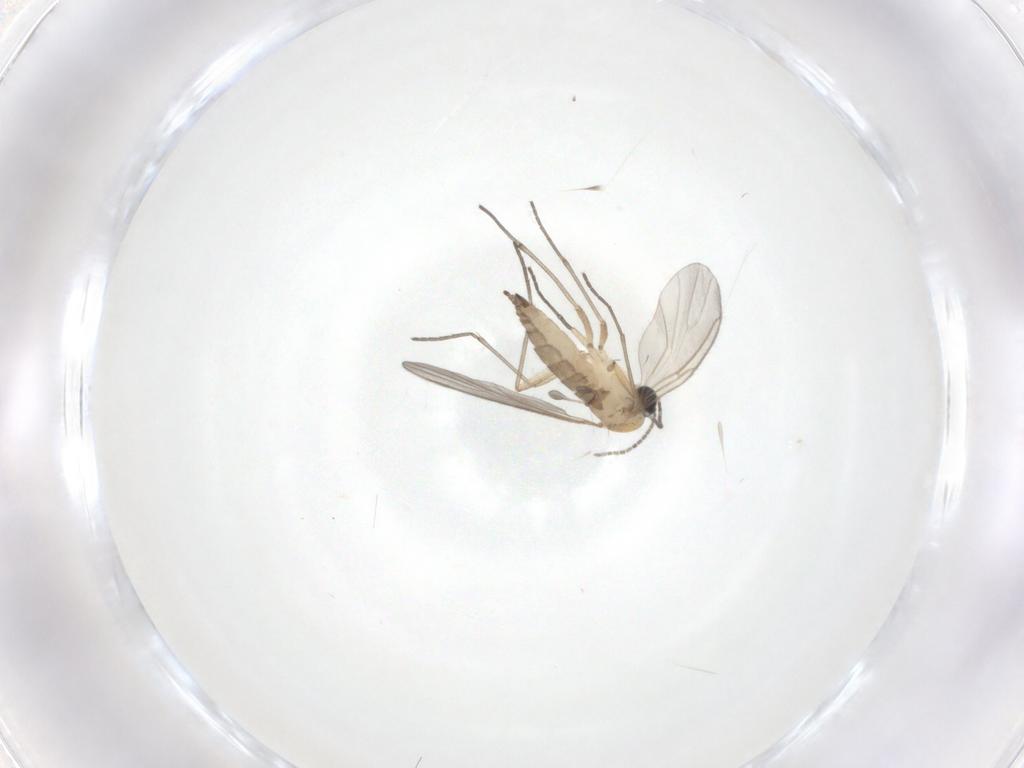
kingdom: Animalia
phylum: Arthropoda
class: Insecta
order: Diptera
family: Sciaridae
